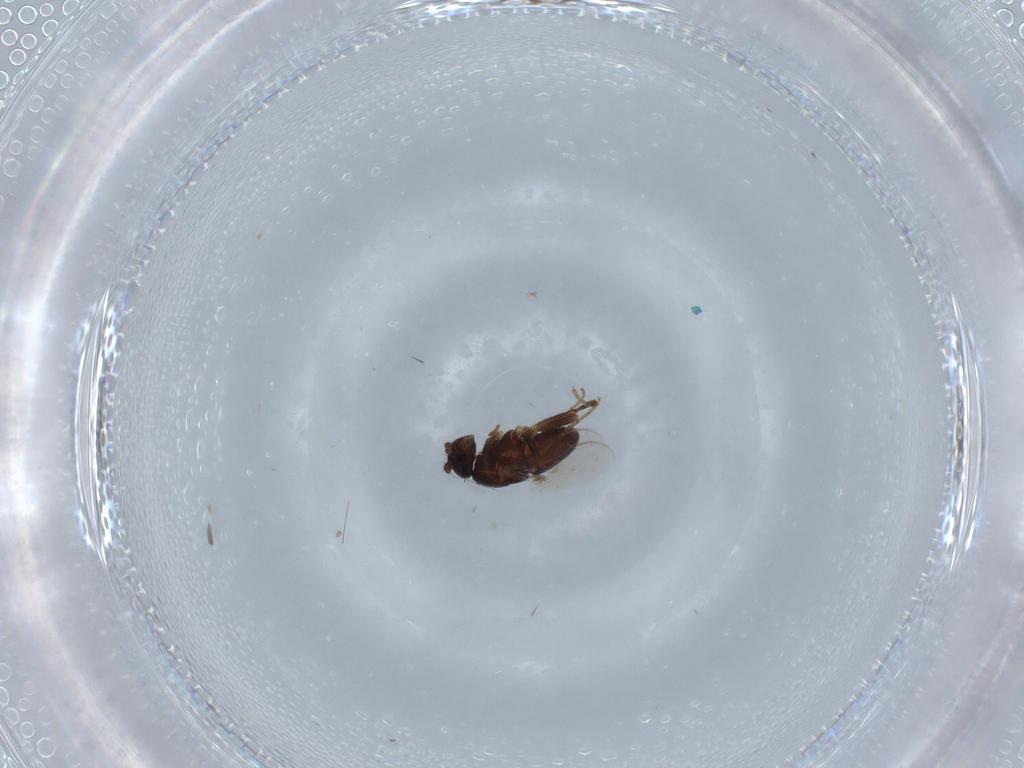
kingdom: Animalia
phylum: Arthropoda
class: Insecta
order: Diptera
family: Sphaeroceridae
